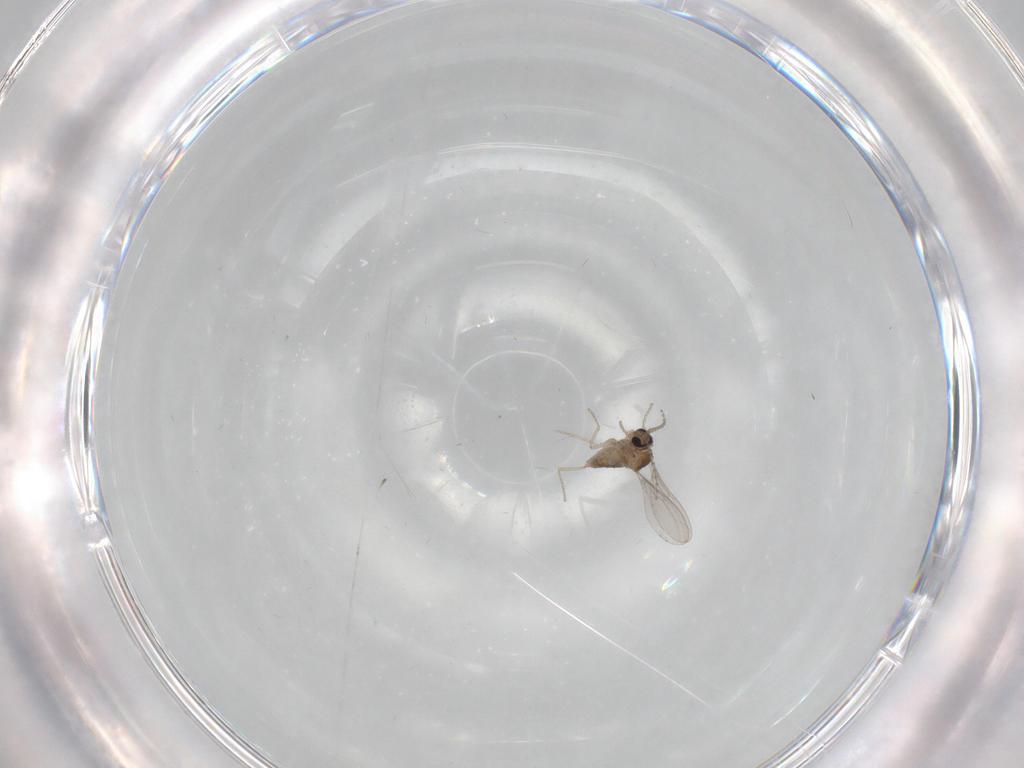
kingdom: Animalia
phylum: Arthropoda
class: Insecta
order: Diptera
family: Cecidomyiidae
